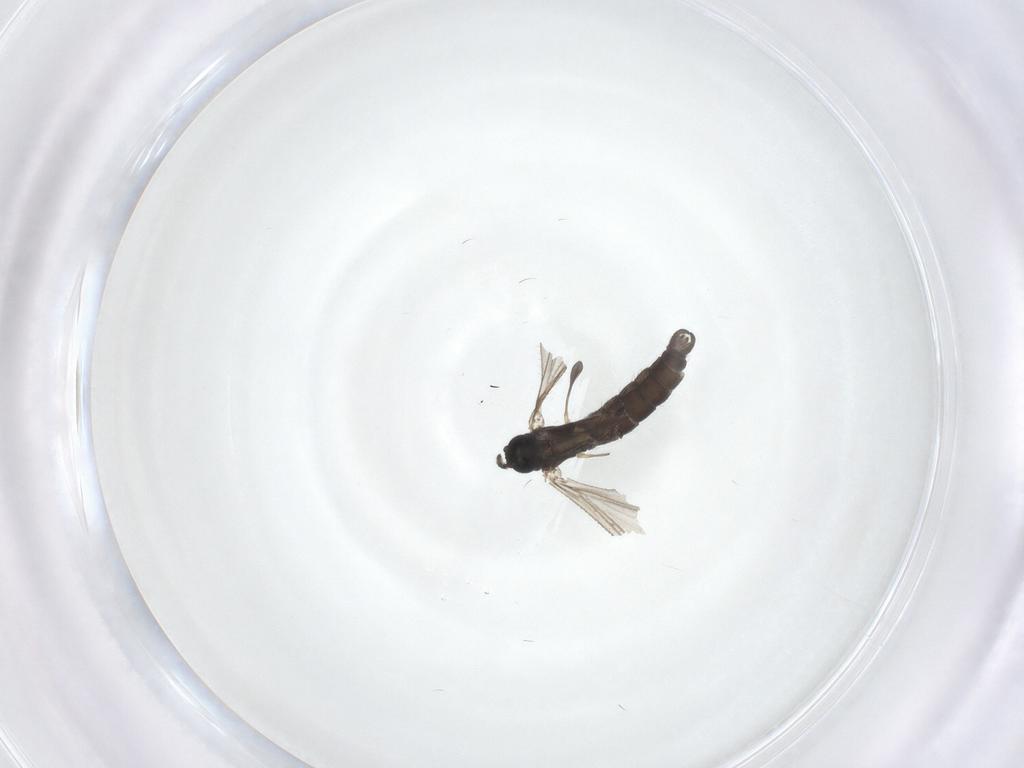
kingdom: Animalia
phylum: Arthropoda
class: Insecta
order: Diptera
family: Sciaridae
